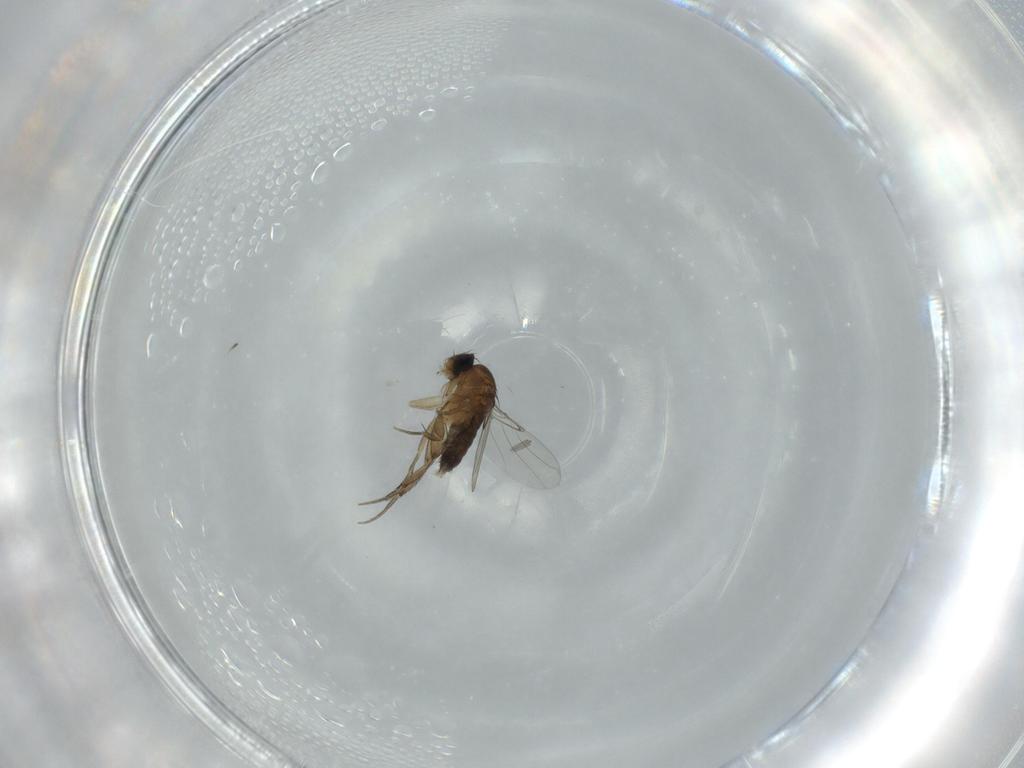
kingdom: Animalia
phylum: Arthropoda
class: Insecta
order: Diptera
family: Phoridae
